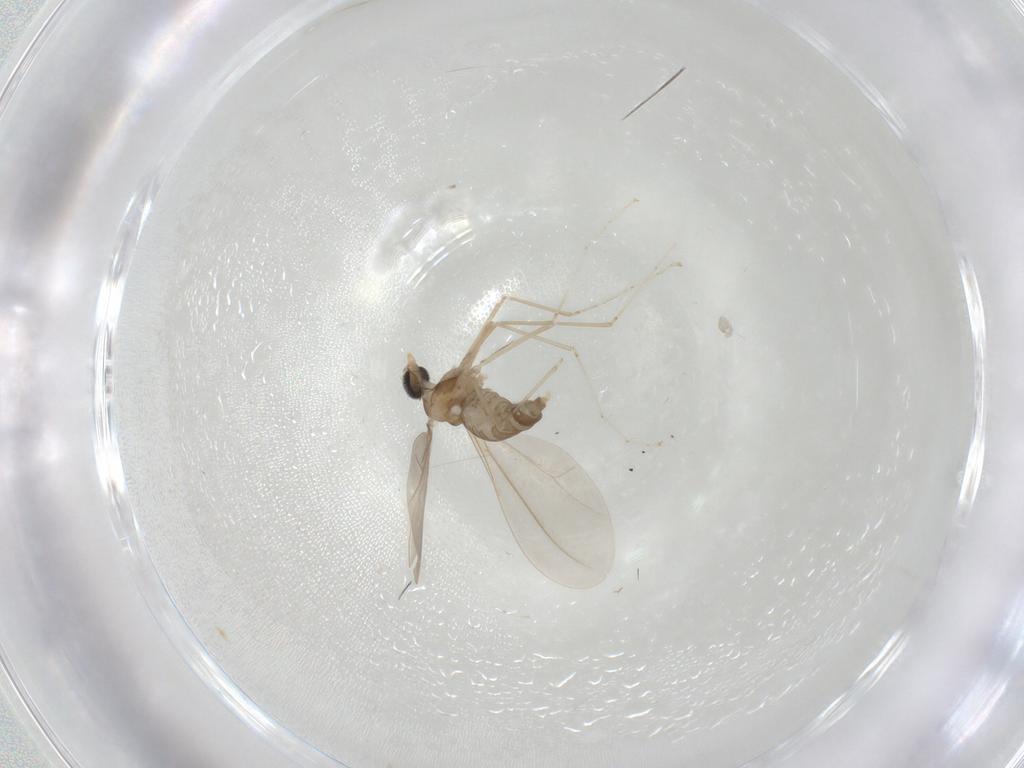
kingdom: Animalia
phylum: Arthropoda
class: Insecta
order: Diptera
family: Cecidomyiidae
